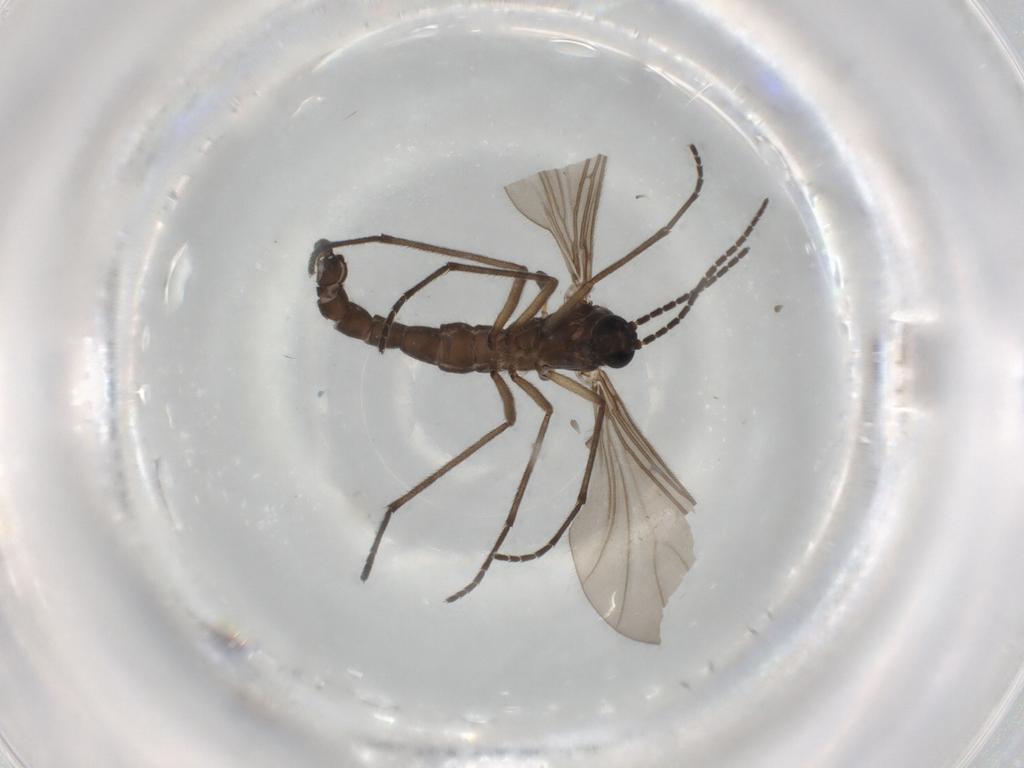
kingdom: Animalia
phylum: Arthropoda
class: Insecta
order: Diptera
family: Sciaridae
